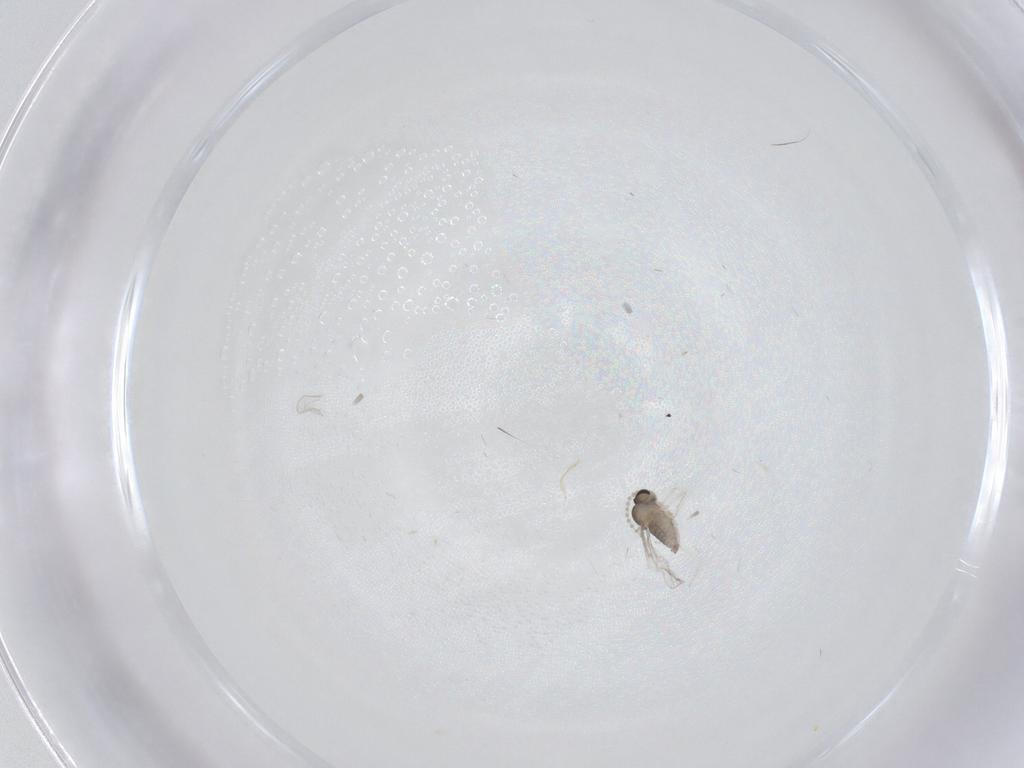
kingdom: Animalia
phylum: Arthropoda
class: Insecta
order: Diptera
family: Cecidomyiidae
